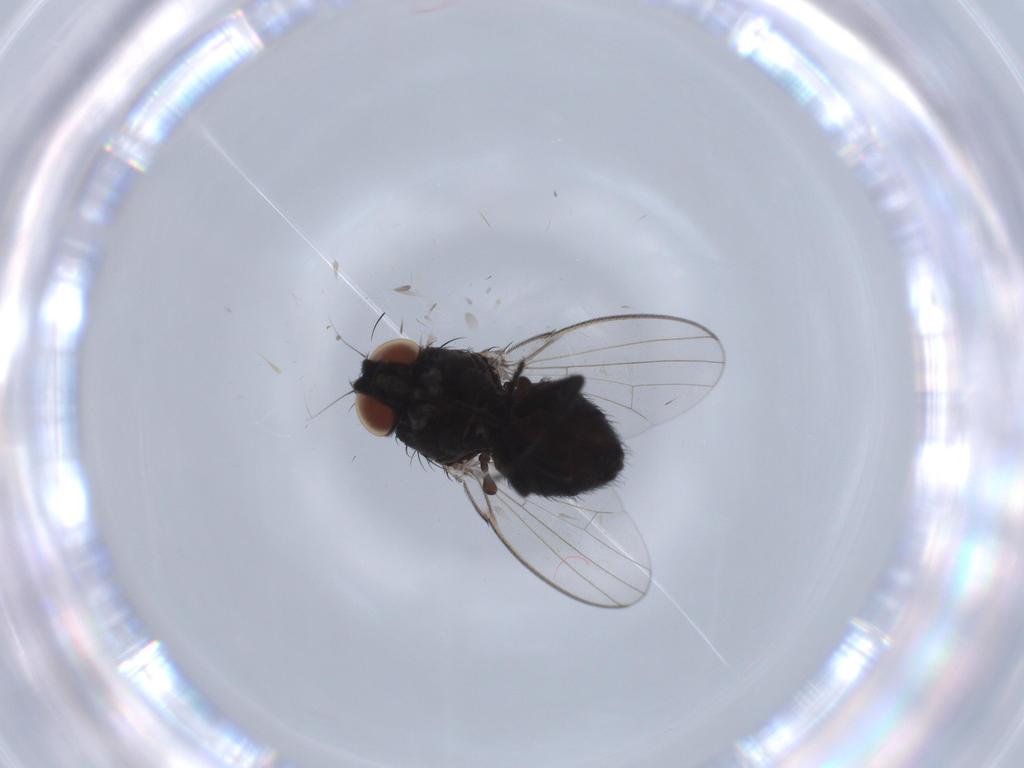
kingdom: Animalia
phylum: Arthropoda
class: Insecta
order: Diptera
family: Milichiidae
